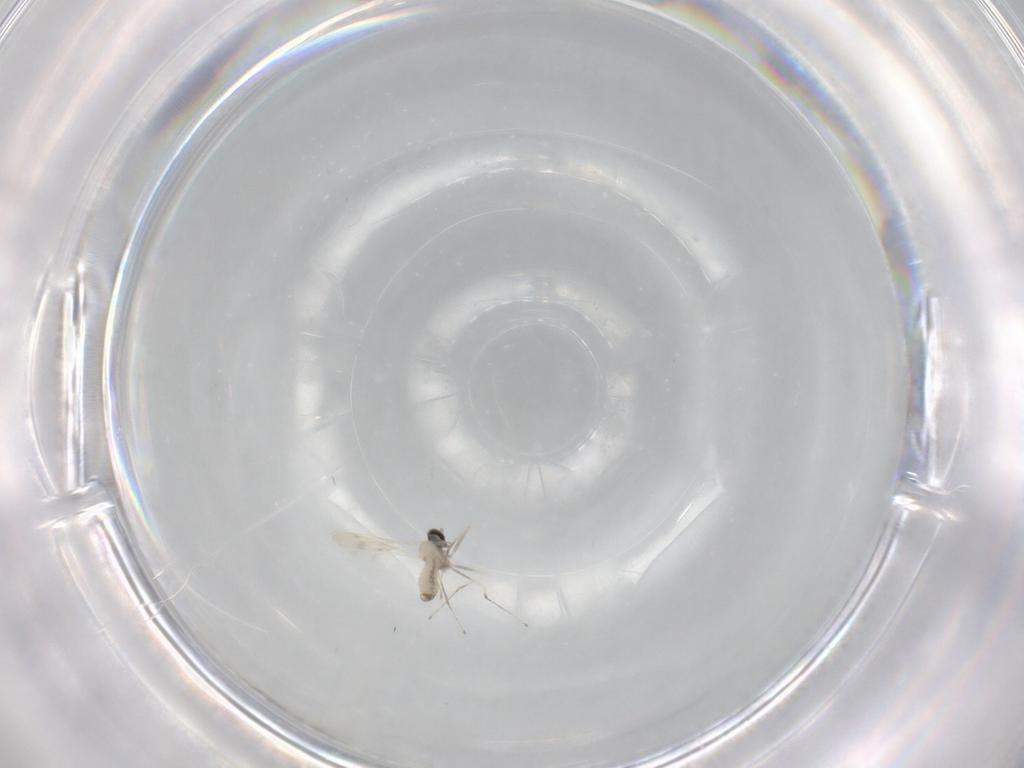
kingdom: Animalia
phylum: Arthropoda
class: Insecta
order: Diptera
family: Cecidomyiidae
